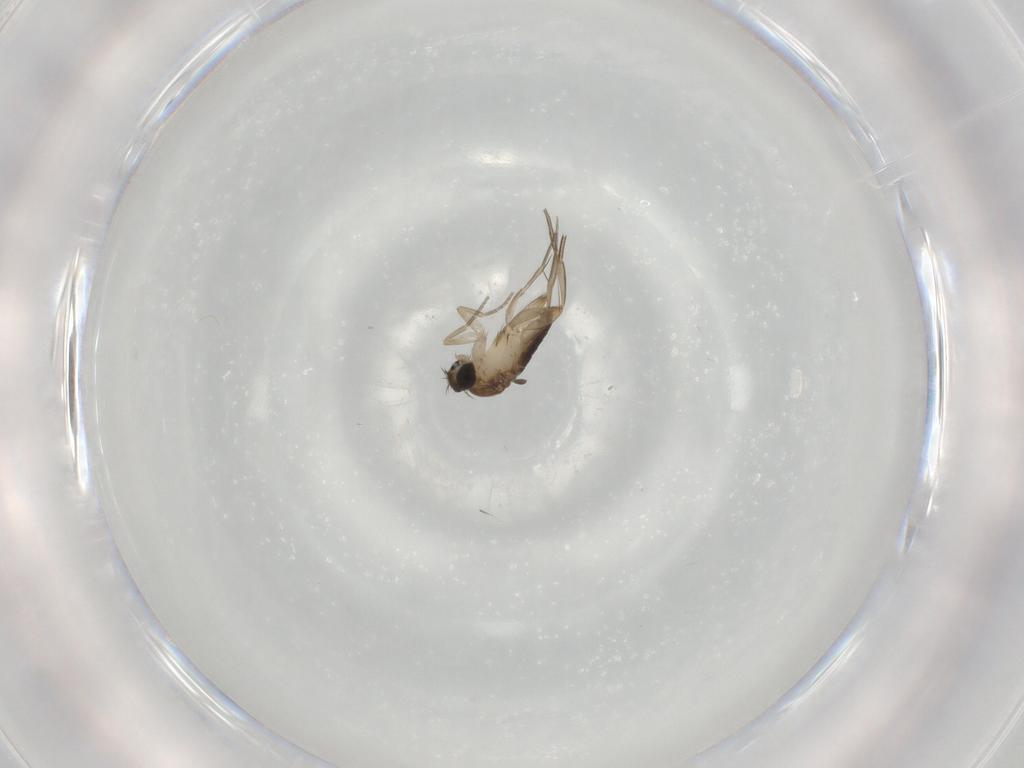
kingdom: Animalia
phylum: Arthropoda
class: Insecta
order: Diptera
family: Phoridae
